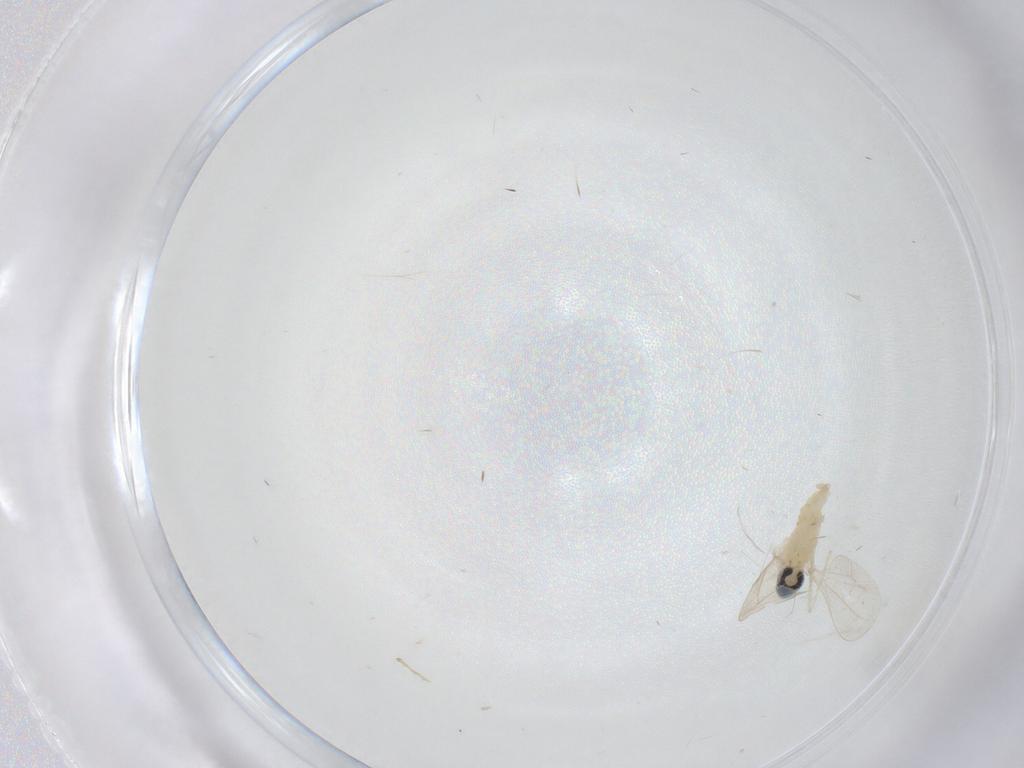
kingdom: Animalia
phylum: Arthropoda
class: Insecta
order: Diptera
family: Cecidomyiidae
